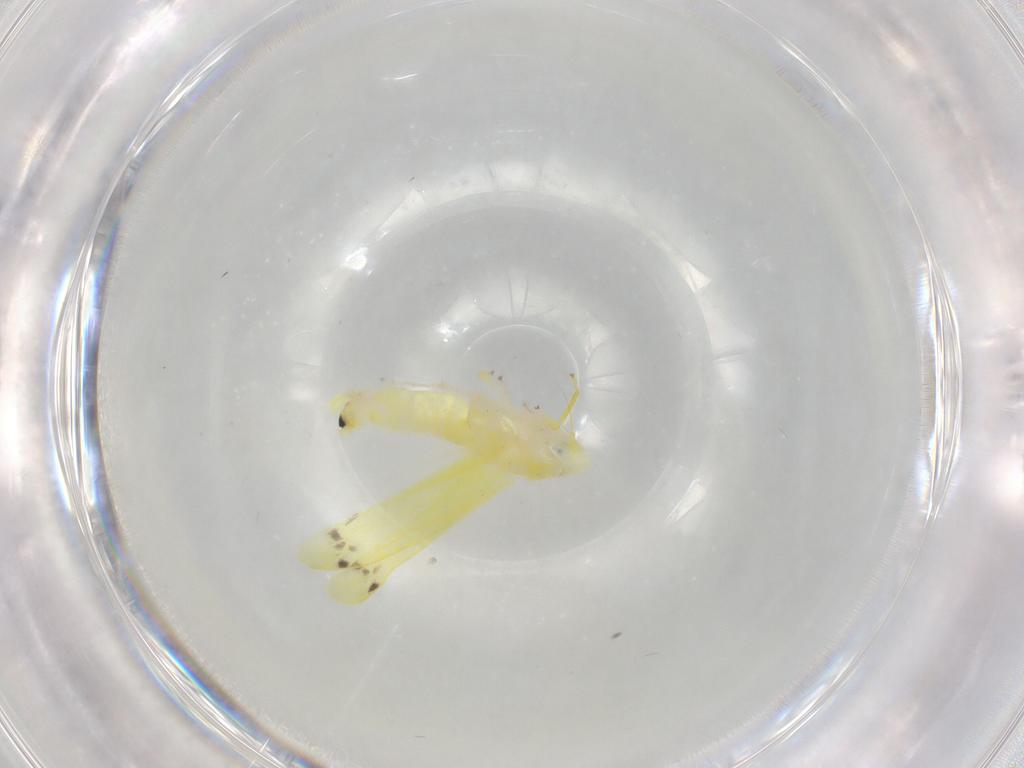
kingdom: Animalia
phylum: Arthropoda
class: Insecta
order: Hemiptera
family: Cicadellidae
